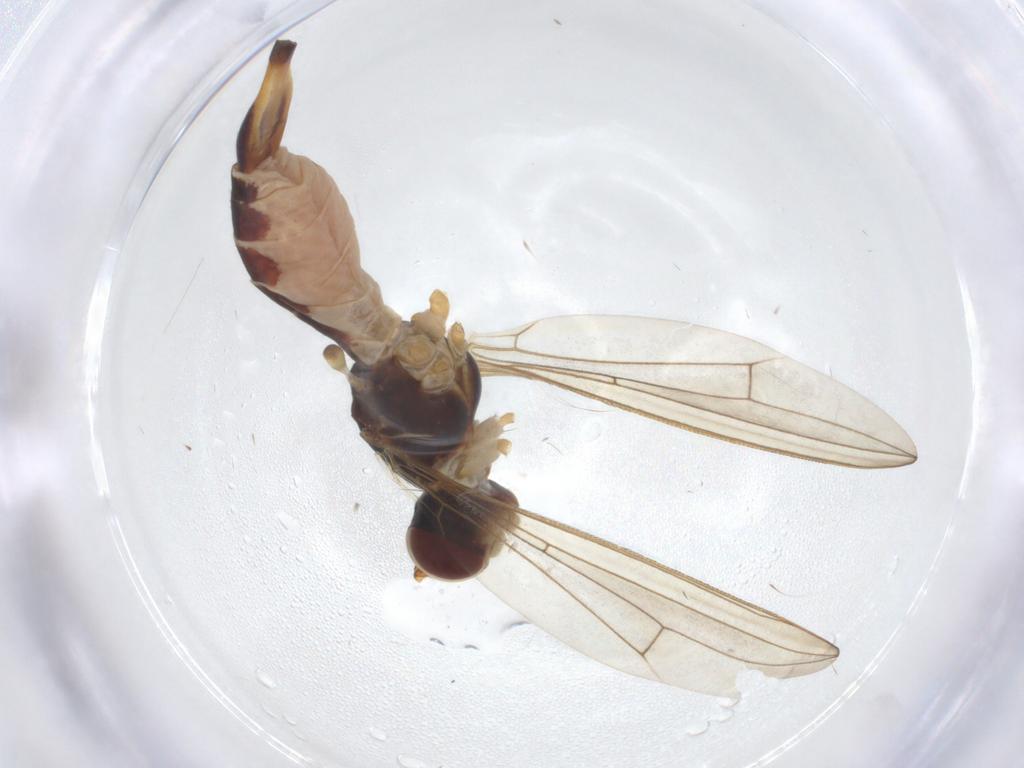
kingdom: Animalia
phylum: Arthropoda
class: Insecta
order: Diptera
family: Micropezidae
